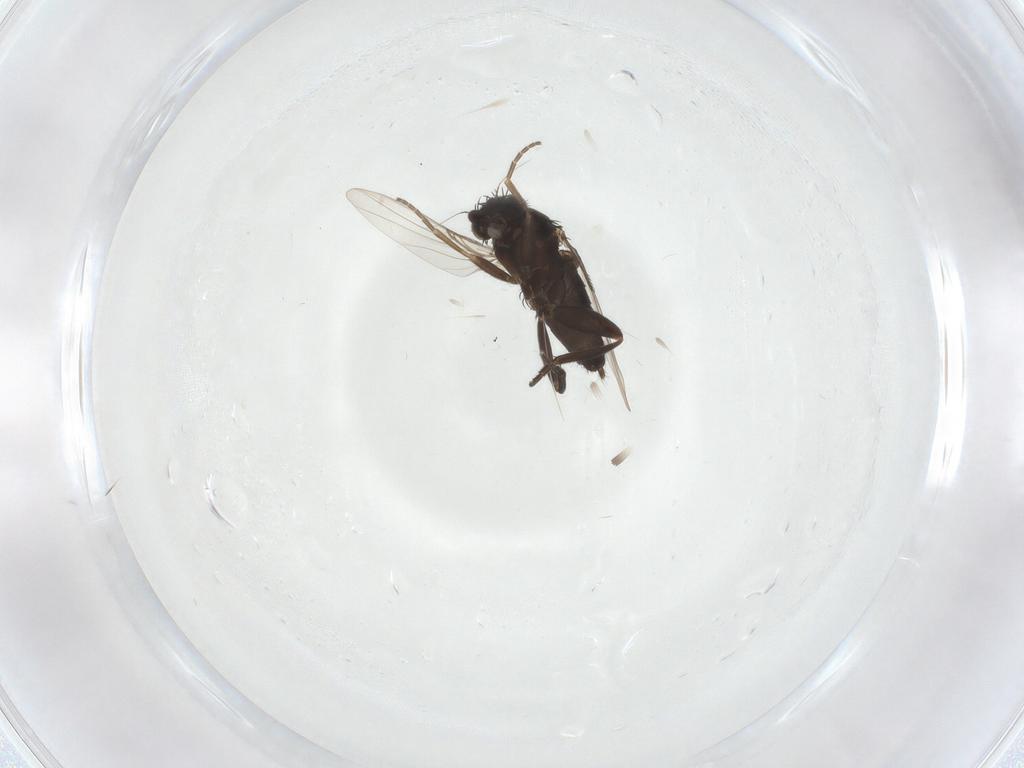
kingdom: Animalia
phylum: Arthropoda
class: Insecta
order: Diptera
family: Phoridae
